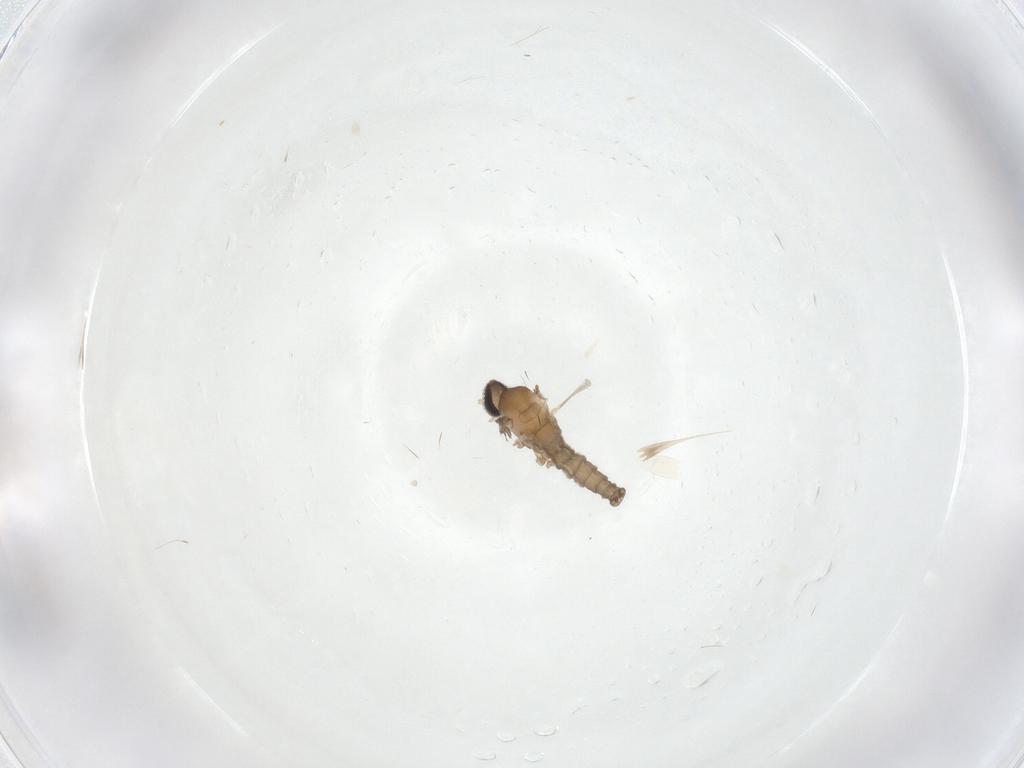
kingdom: Animalia
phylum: Arthropoda
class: Insecta
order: Diptera
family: Cecidomyiidae
